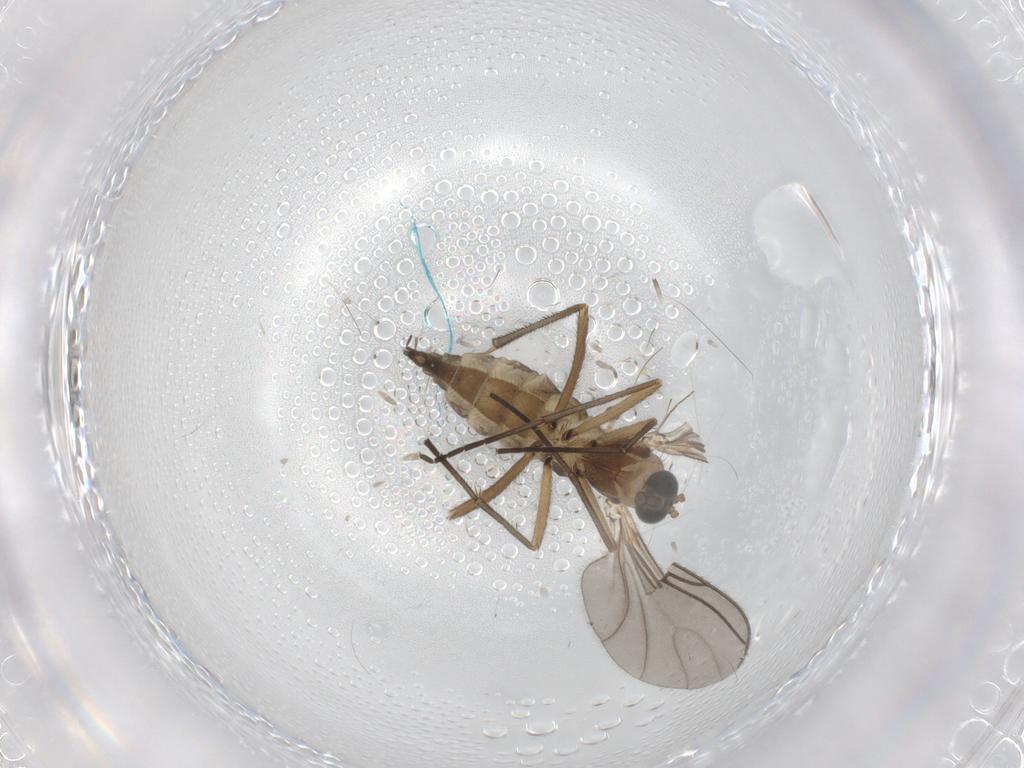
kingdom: Animalia
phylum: Arthropoda
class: Insecta
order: Diptera
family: Sciaridae
